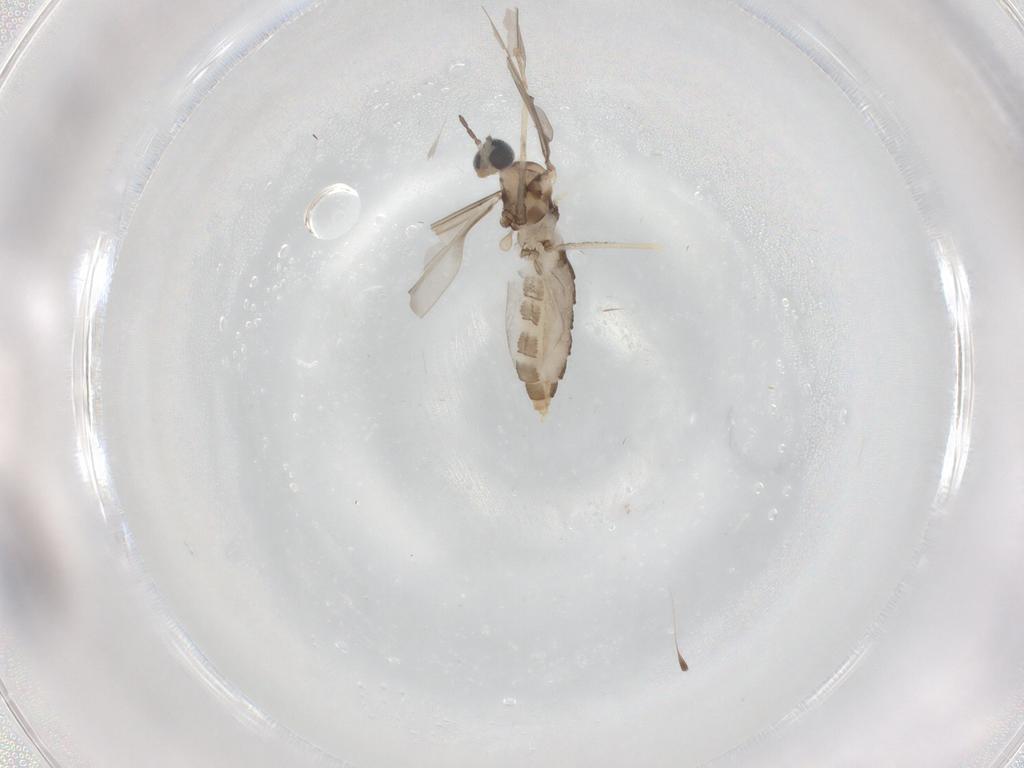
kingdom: Animalia
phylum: Arthropoda
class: Insecta
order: Diptera
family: Cecidomyiidae
